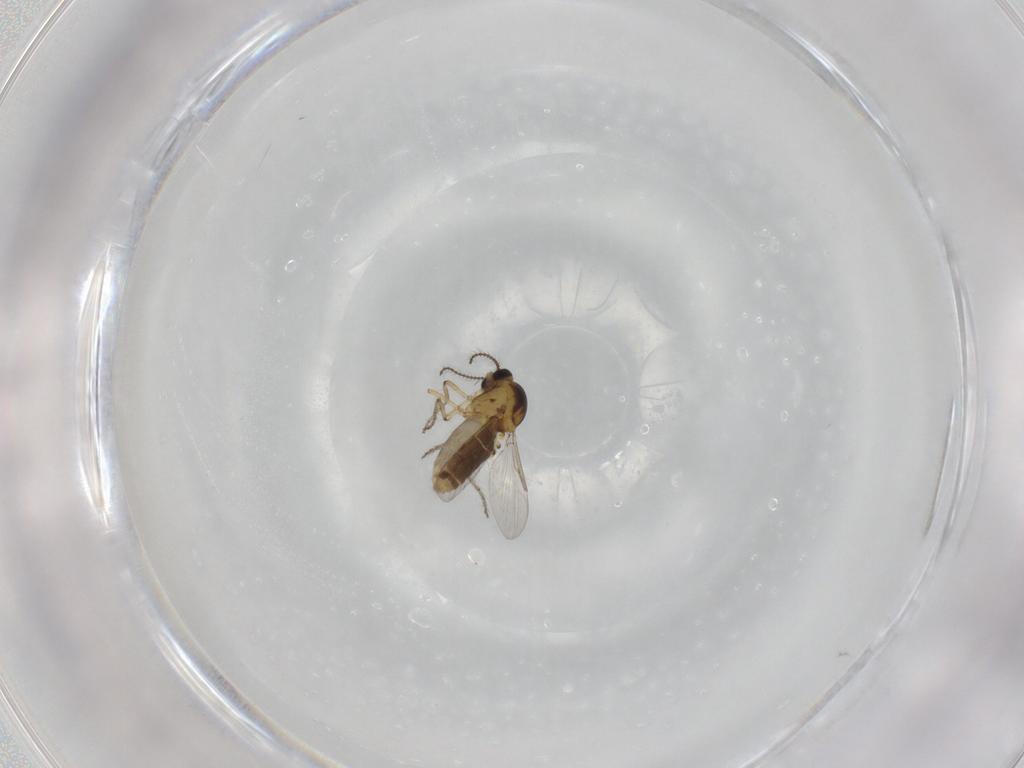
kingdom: Animalia
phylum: Arthropoda
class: Insecta
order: Diptera
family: Ceratopogonidae
